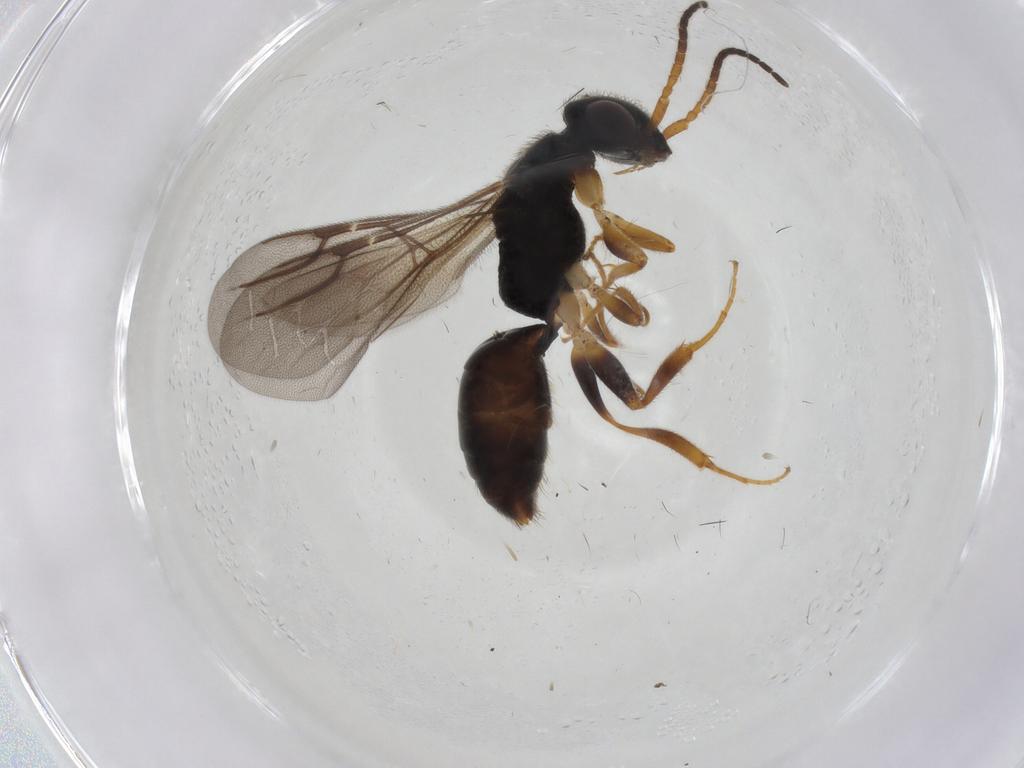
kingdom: Animalia
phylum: Arthropoda
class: Insecta
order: Hymenoptera
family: Bethylidae
